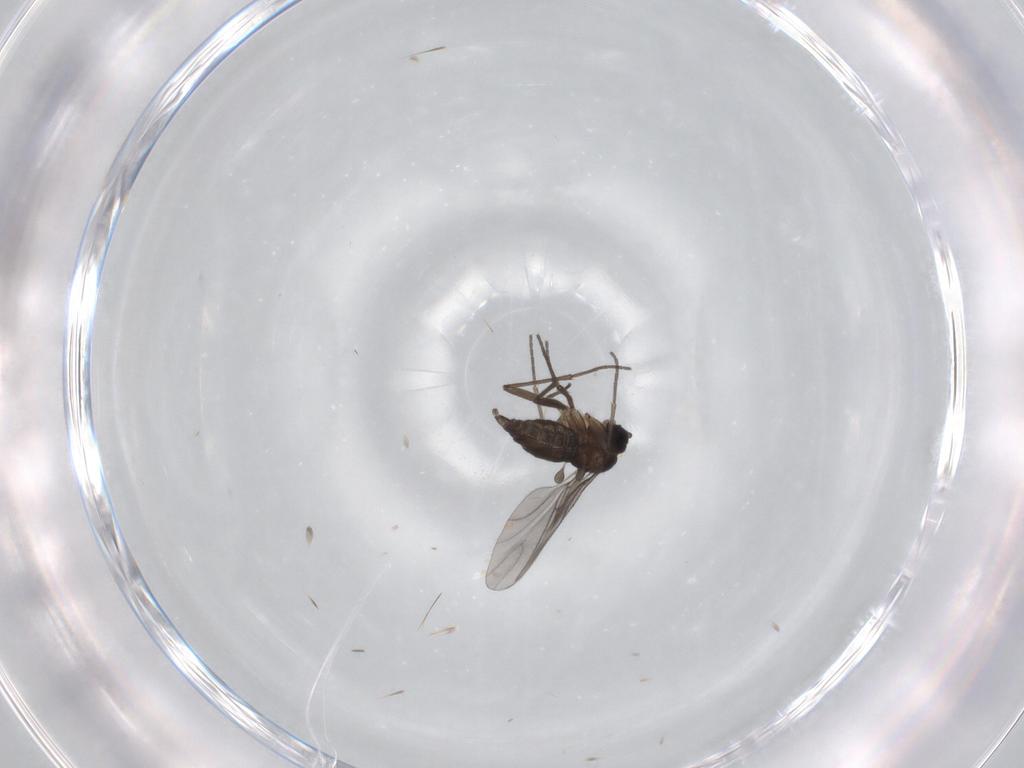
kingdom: Animalia
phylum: Arthropoda
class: Insecta
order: Diptera
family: Sciaridae
